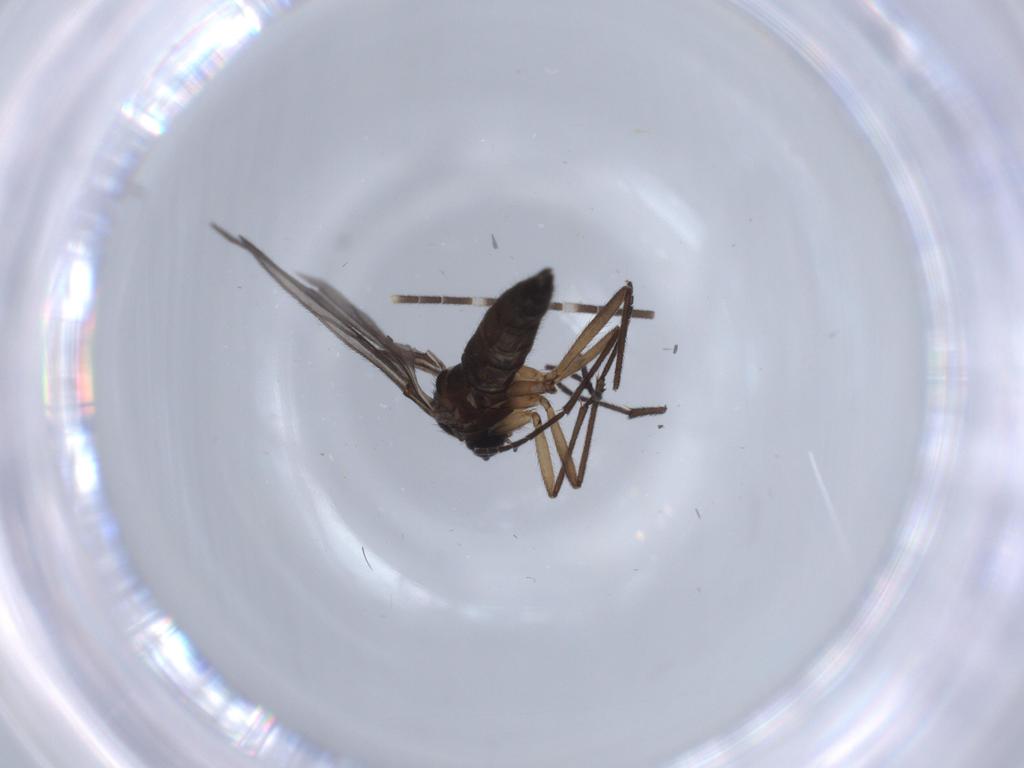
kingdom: Animalia
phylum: Arthropoda
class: Insecta
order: Diptera
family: Sciaridae
